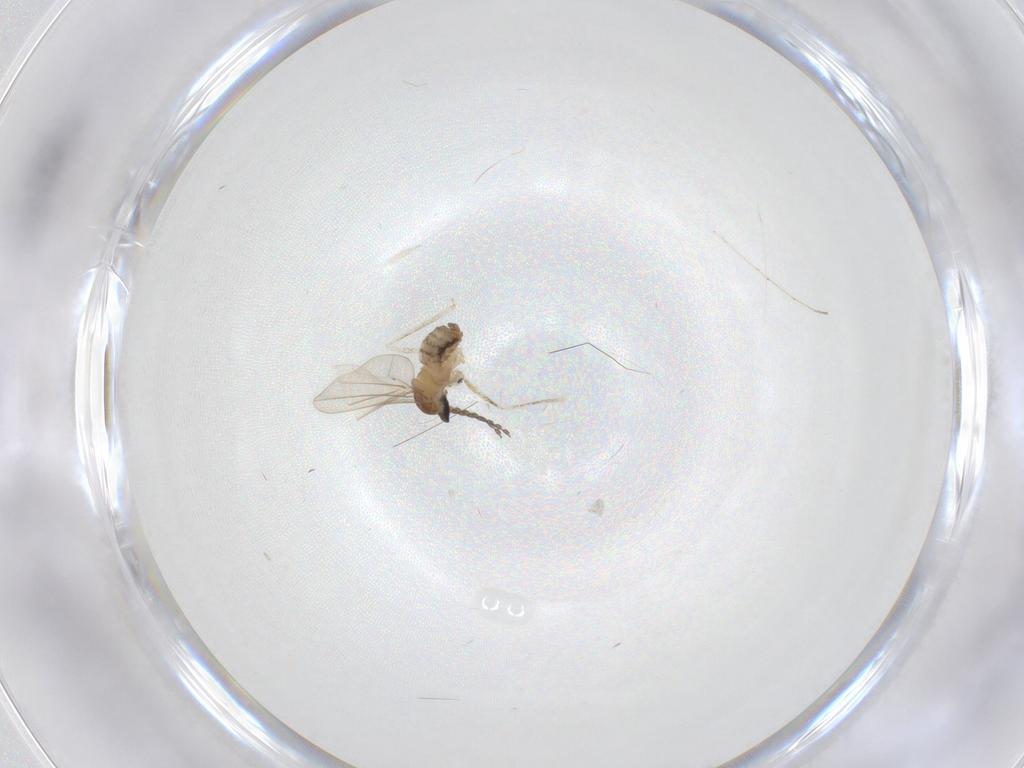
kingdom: Animalia
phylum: Arthropoda
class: Insecta
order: Diptera
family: Cecidomyiidae
